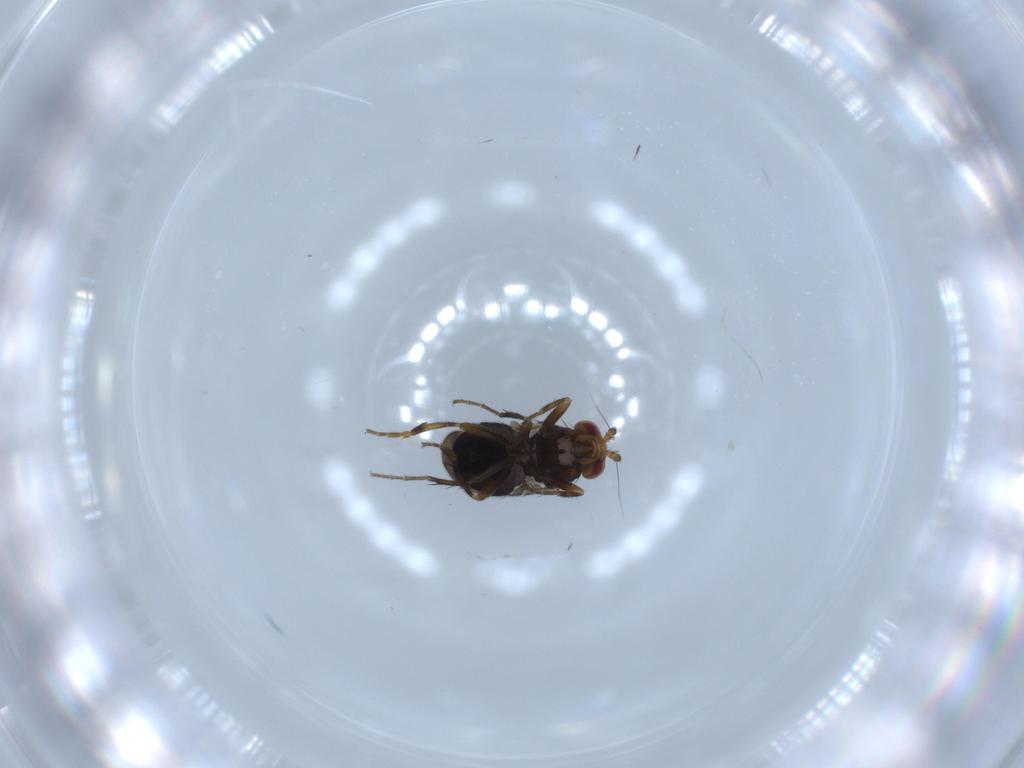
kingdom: Animalia
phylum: Arthropoda
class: Insecta
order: Diptera
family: Sphaeroceridae
